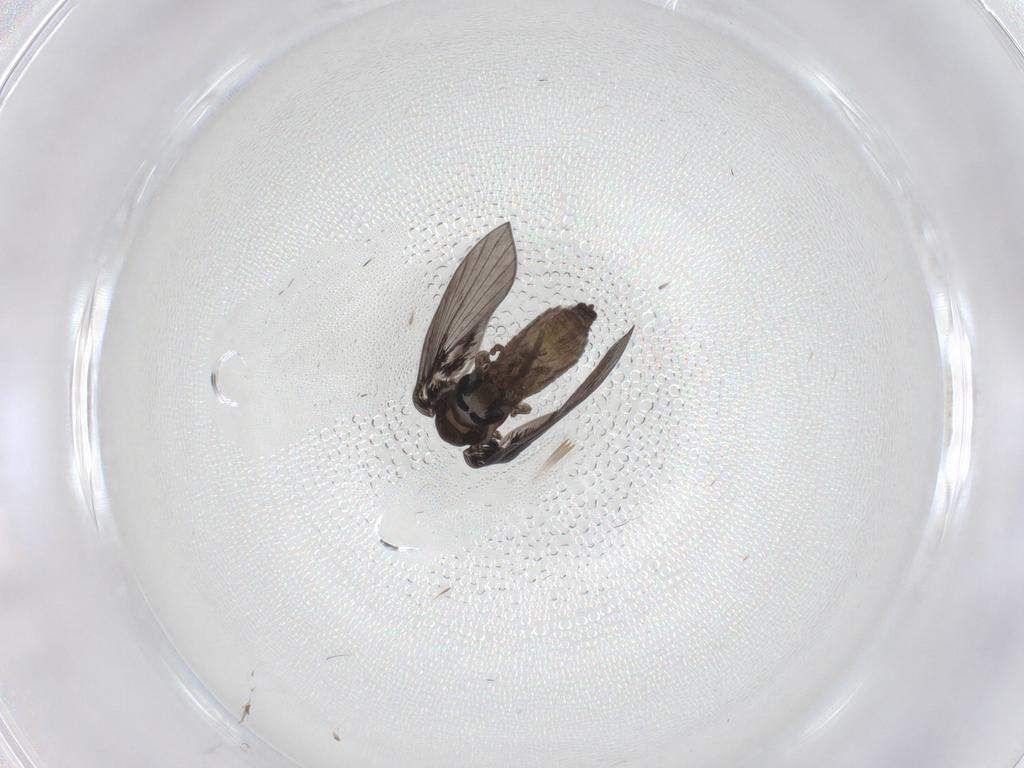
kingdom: Animalia
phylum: Arthropoda
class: Insecta
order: Diptera
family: Ceratopogonidae
